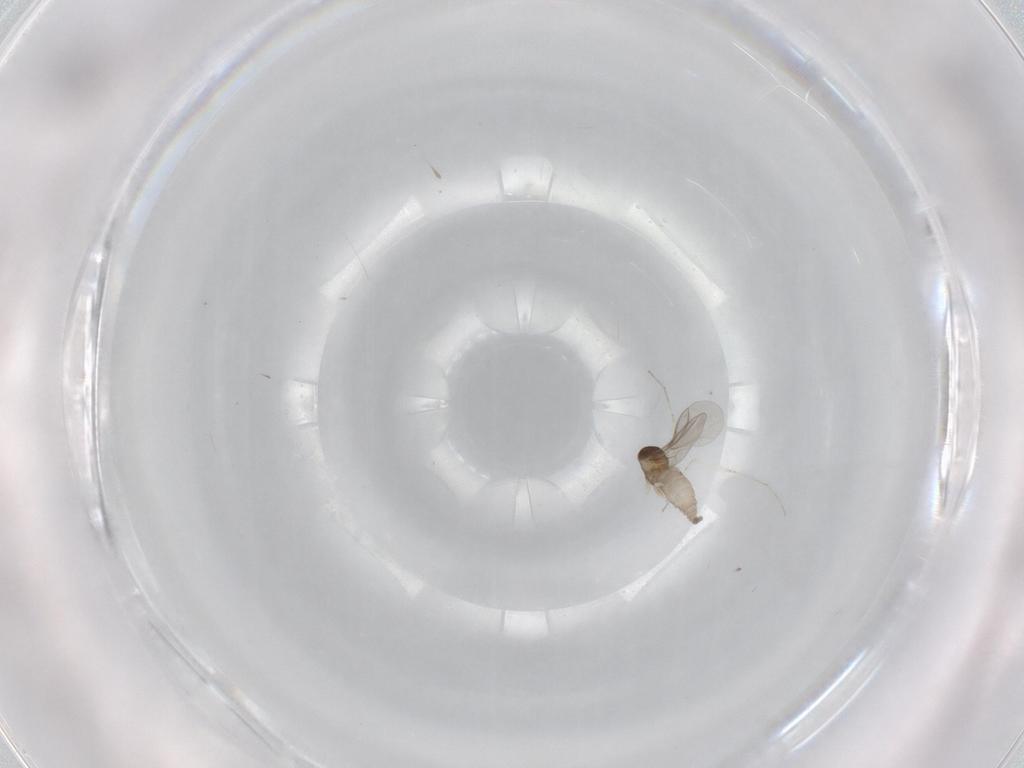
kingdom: Animalia
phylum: Arthropoda
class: Insecta
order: Diptera
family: Cecidomyiidae
